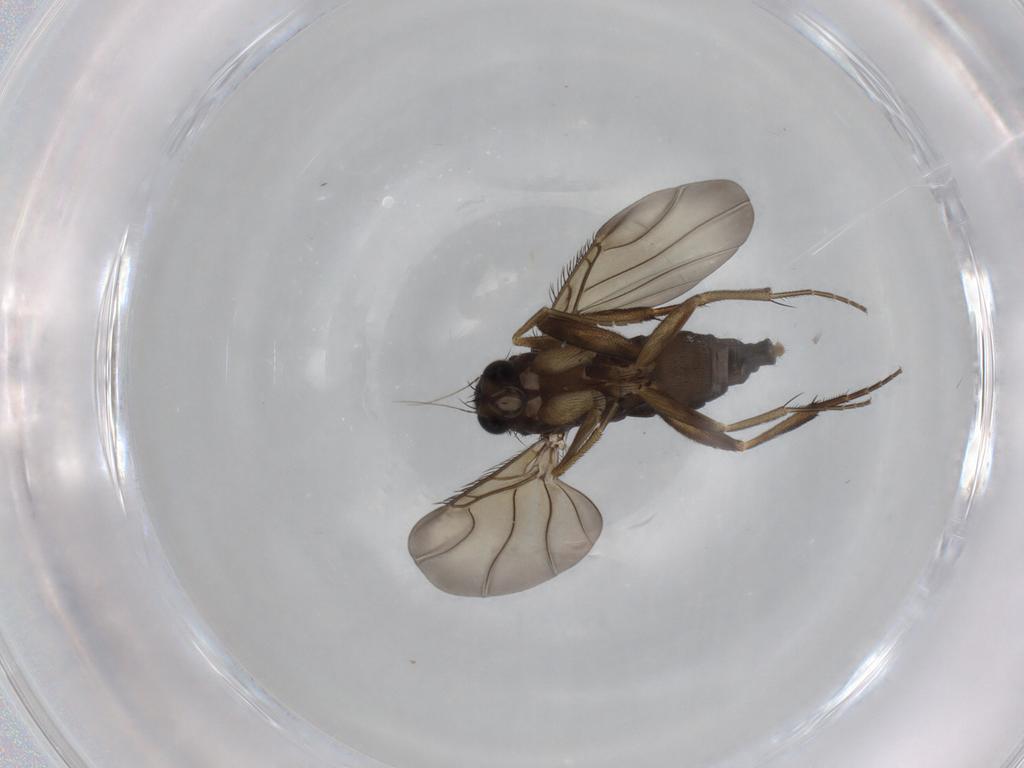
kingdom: Animalia
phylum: Arthropoda
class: Insecta
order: Diptera
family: Phoridae
